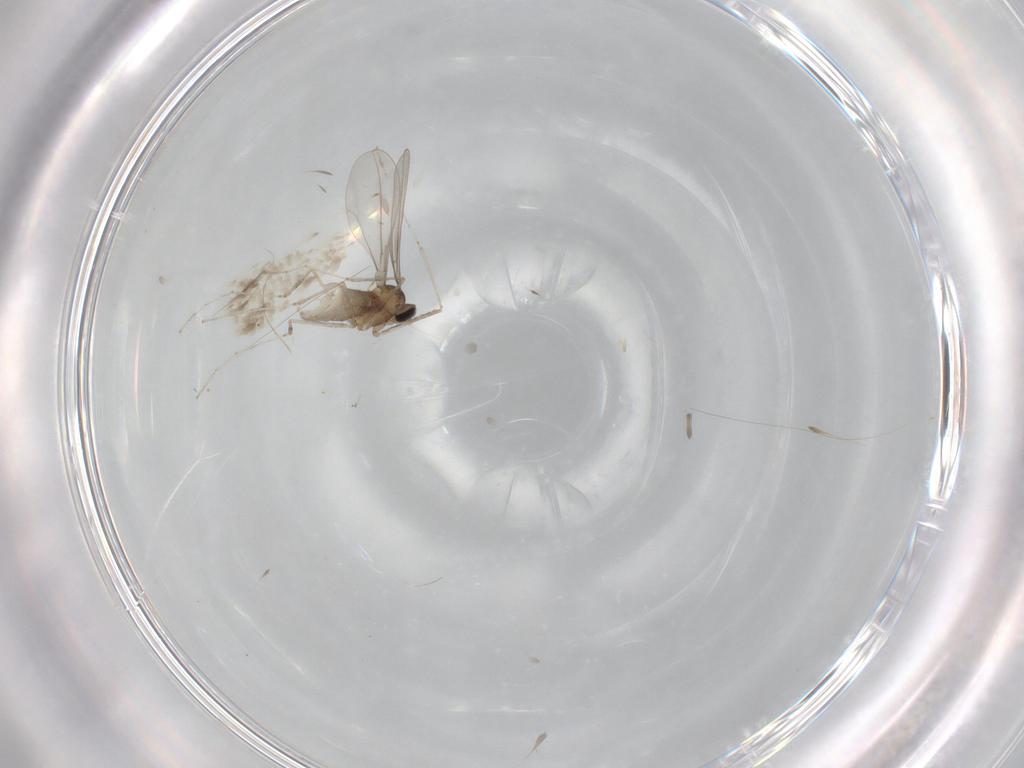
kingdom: Animalia
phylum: Arthropoda
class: Insecta
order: Diptera
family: Cecidomyiidae
